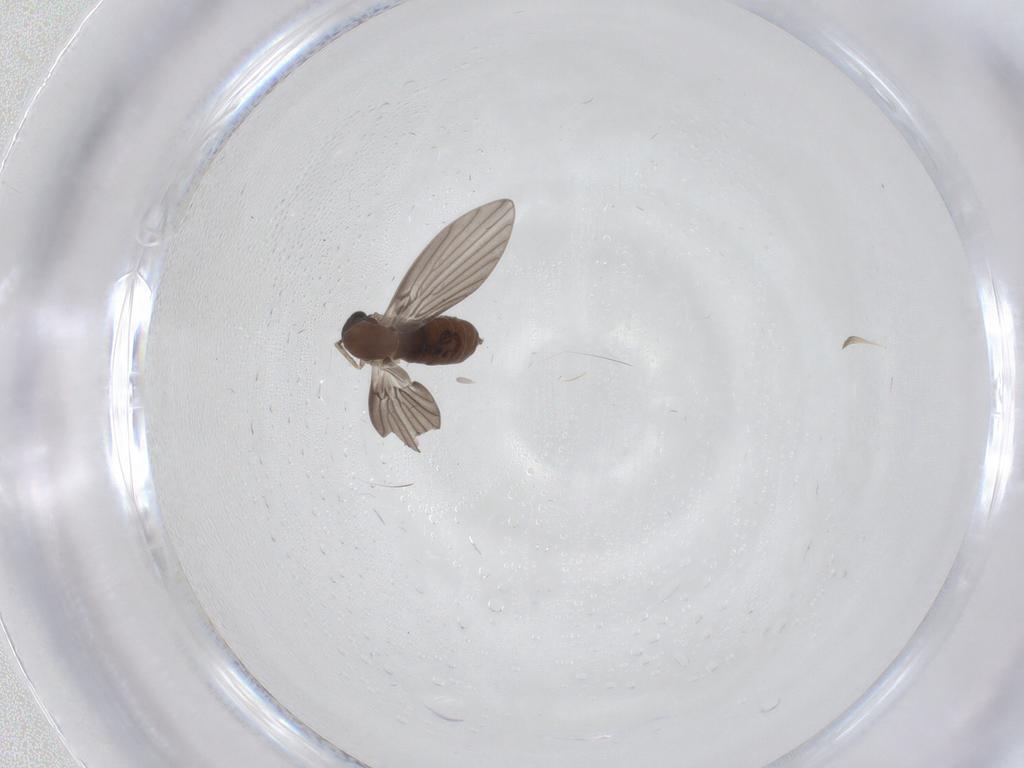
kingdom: Animalia
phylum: Arthropoda
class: Insecta
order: Diptera
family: Psychodidae
